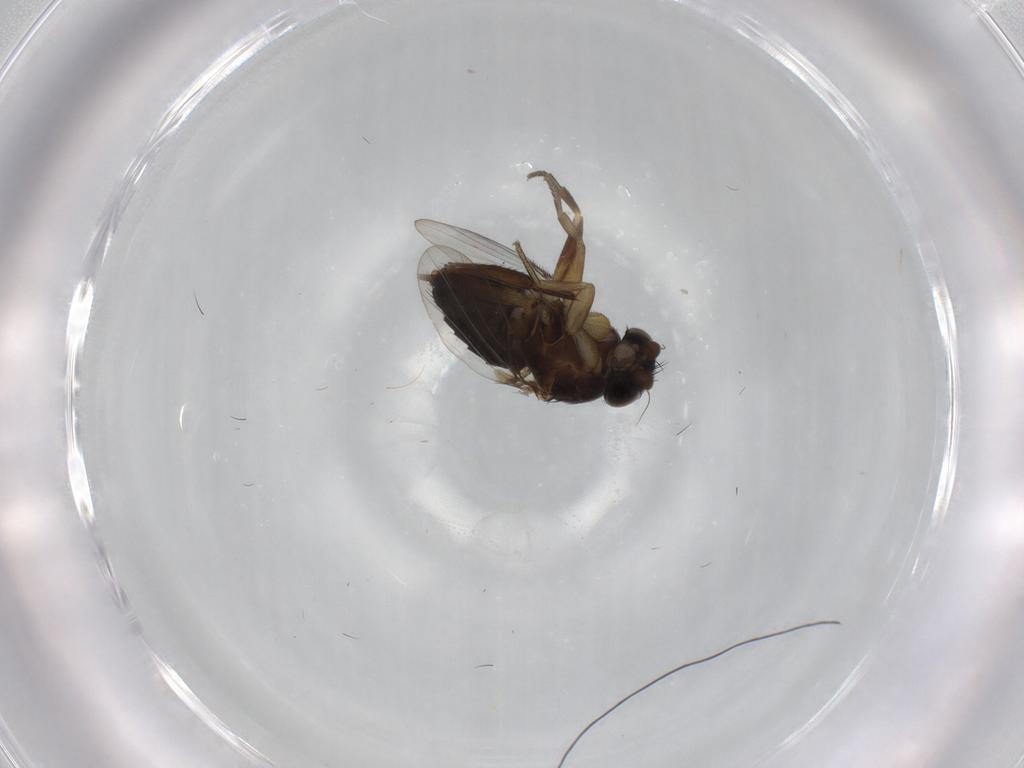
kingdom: Animalia
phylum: Arthropoda
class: Insecta
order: Diptera
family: Phoridae
